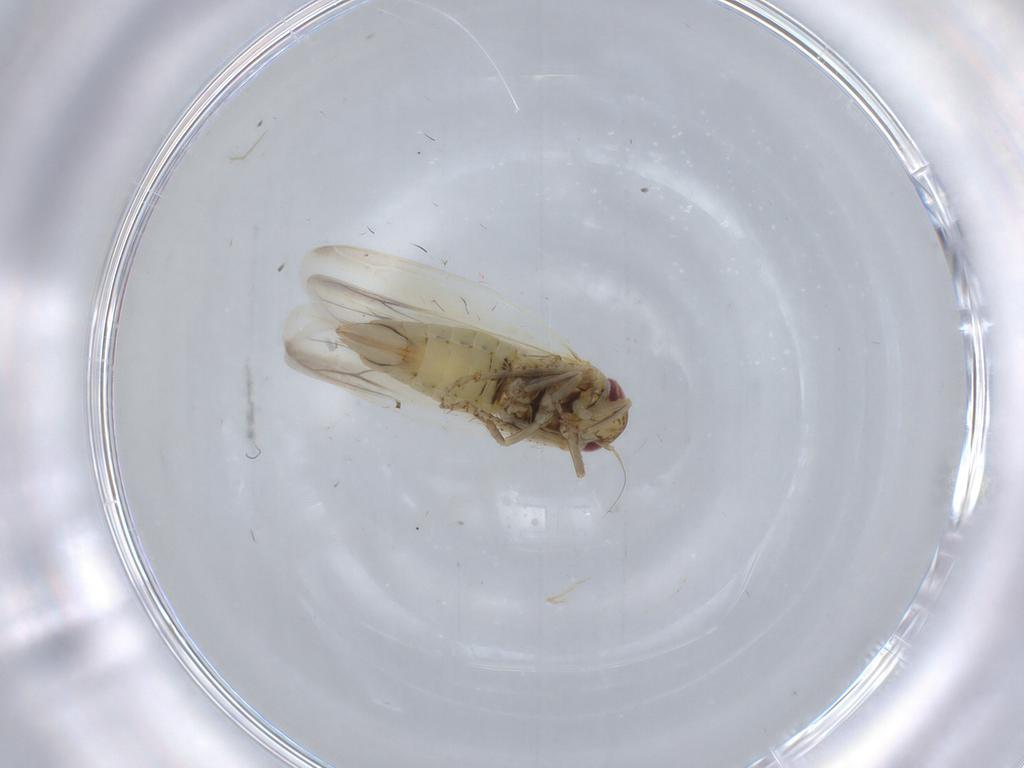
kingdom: Animalia
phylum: Arthropoda
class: Insecta
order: Hemiptera
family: Cicadellidae
